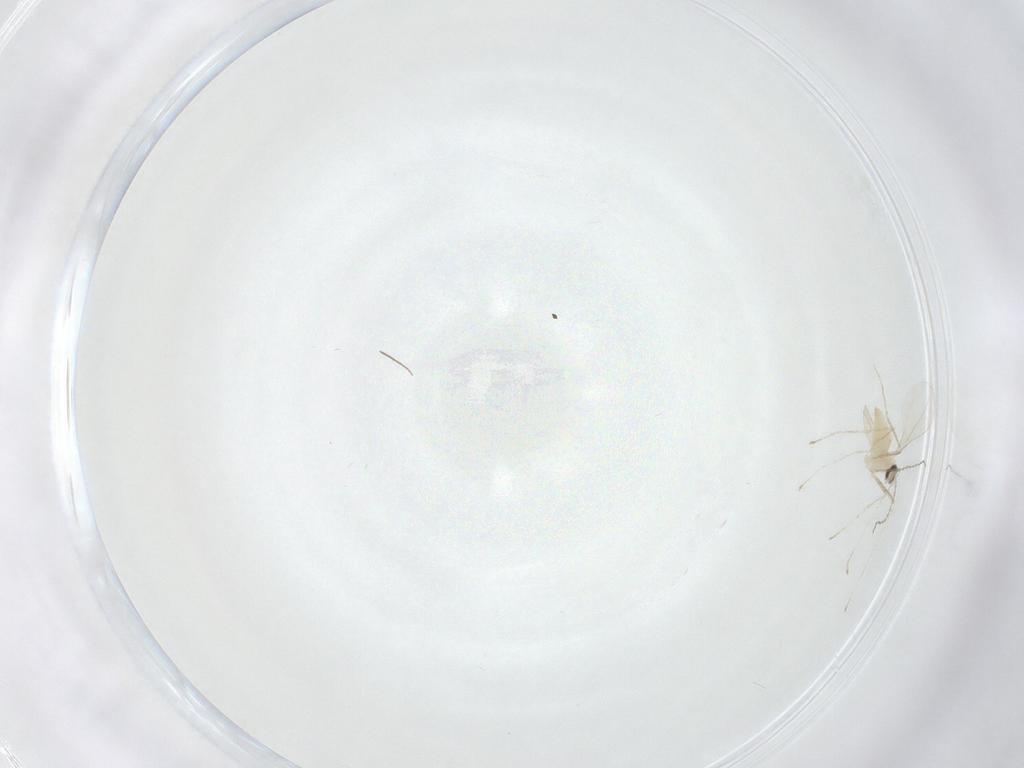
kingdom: Animalia
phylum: Arthropoda
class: Insecta
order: Diptera
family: Cecidomyiidae
